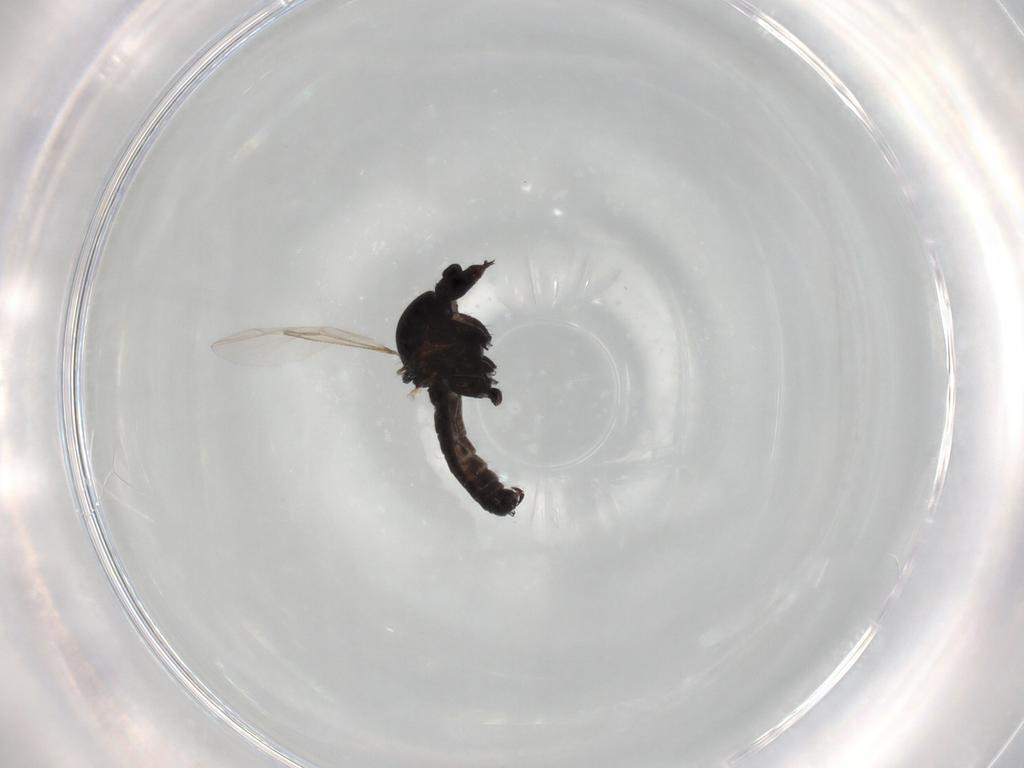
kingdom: Animalia
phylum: Arthropoda
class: Insecta
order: Diptera
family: Ceratopogonidae
